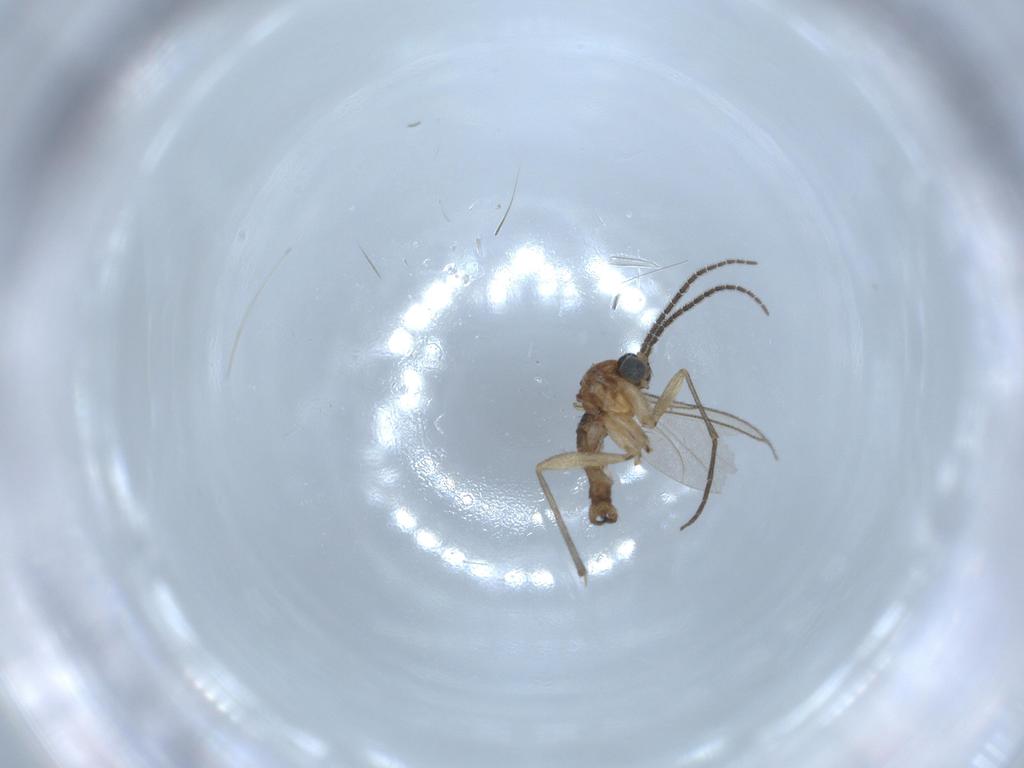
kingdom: Animalia
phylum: Arthropoda
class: Insecta
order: Diptera
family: Sciaridae
